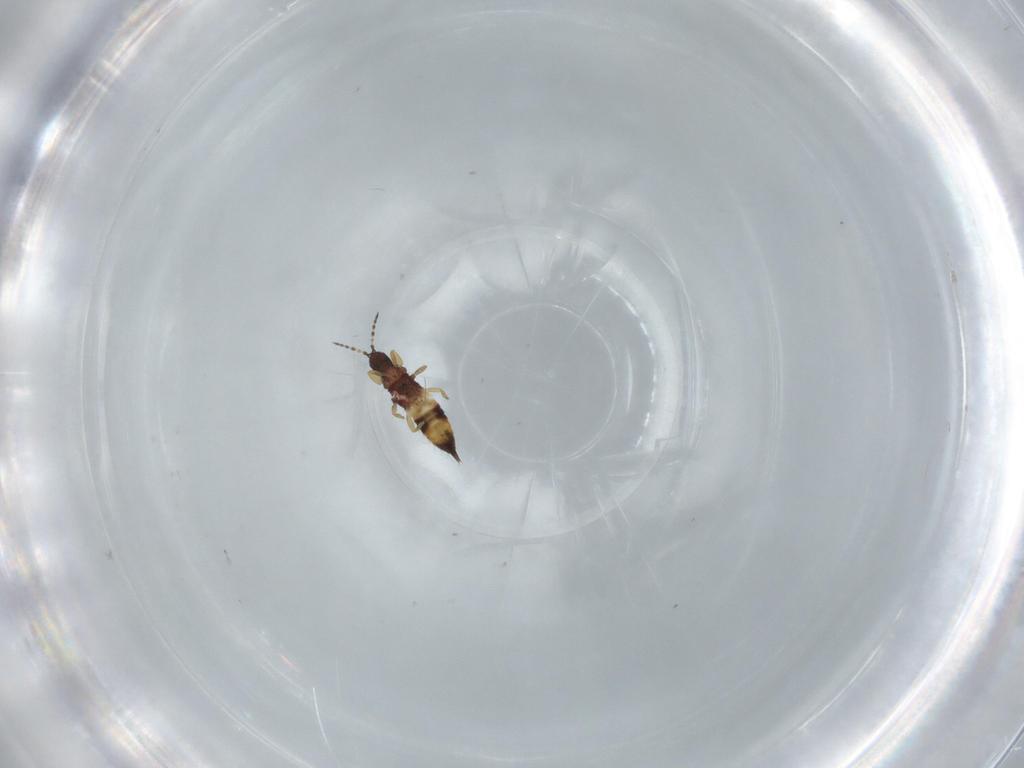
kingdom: Animalia
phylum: Arthropoda
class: Insecta
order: Thysanoptera
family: Phlaeothripidae
